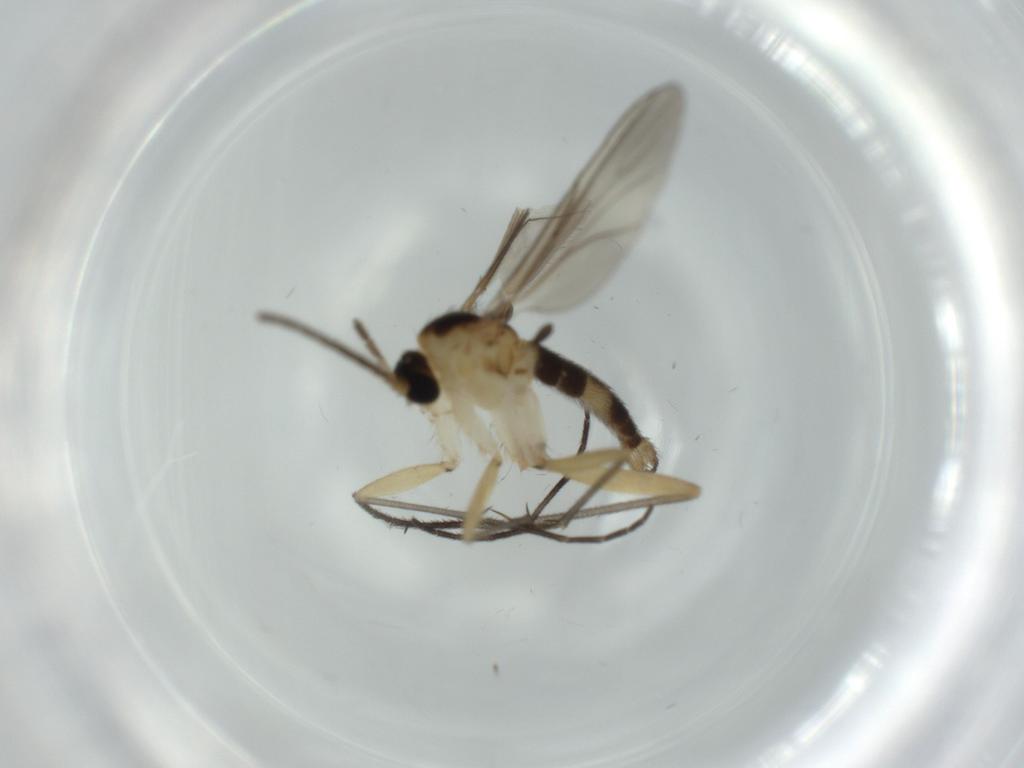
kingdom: Animalia
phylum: Arthropoda
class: Insecta
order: Diptera
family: Sciaridae
